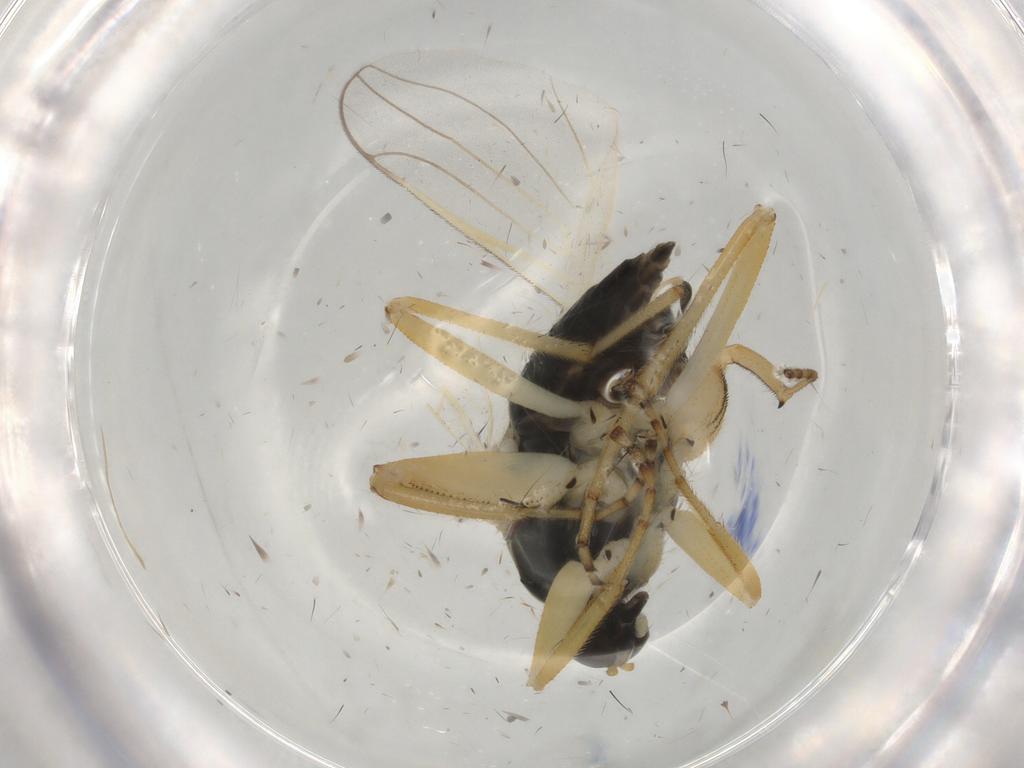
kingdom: Animalia
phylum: Arthropoda
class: Insecta
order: Diptera
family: Hybotidae
